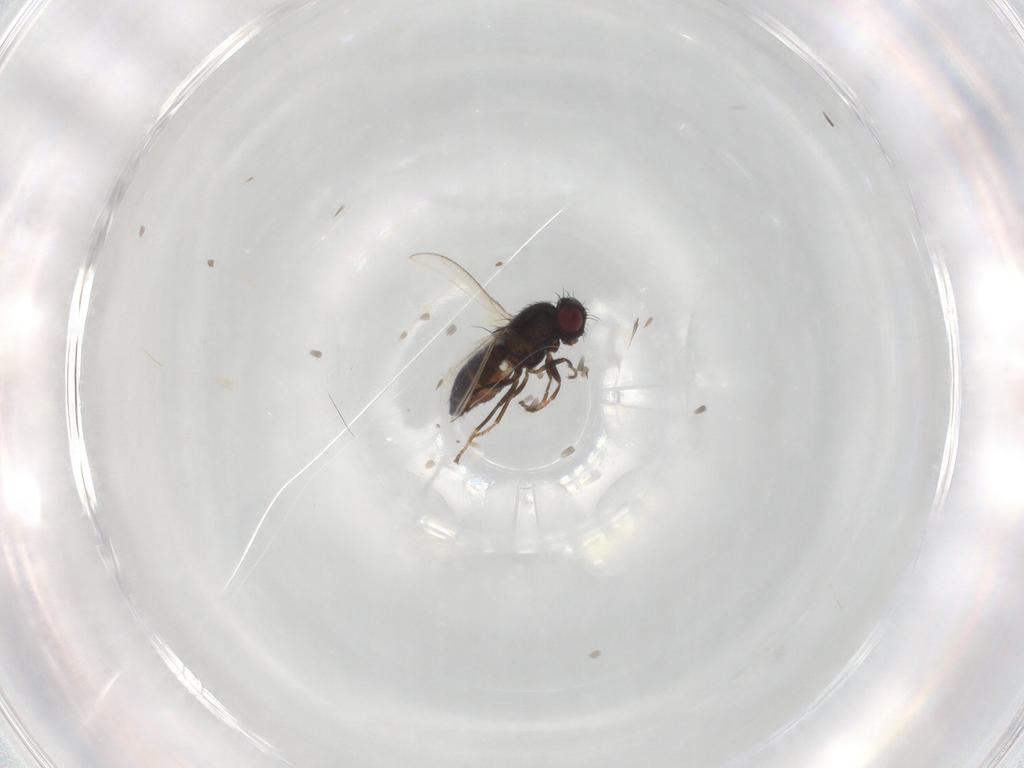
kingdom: Animalia
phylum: Arthropoda
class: Insecta
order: Diptera
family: Carnidae
